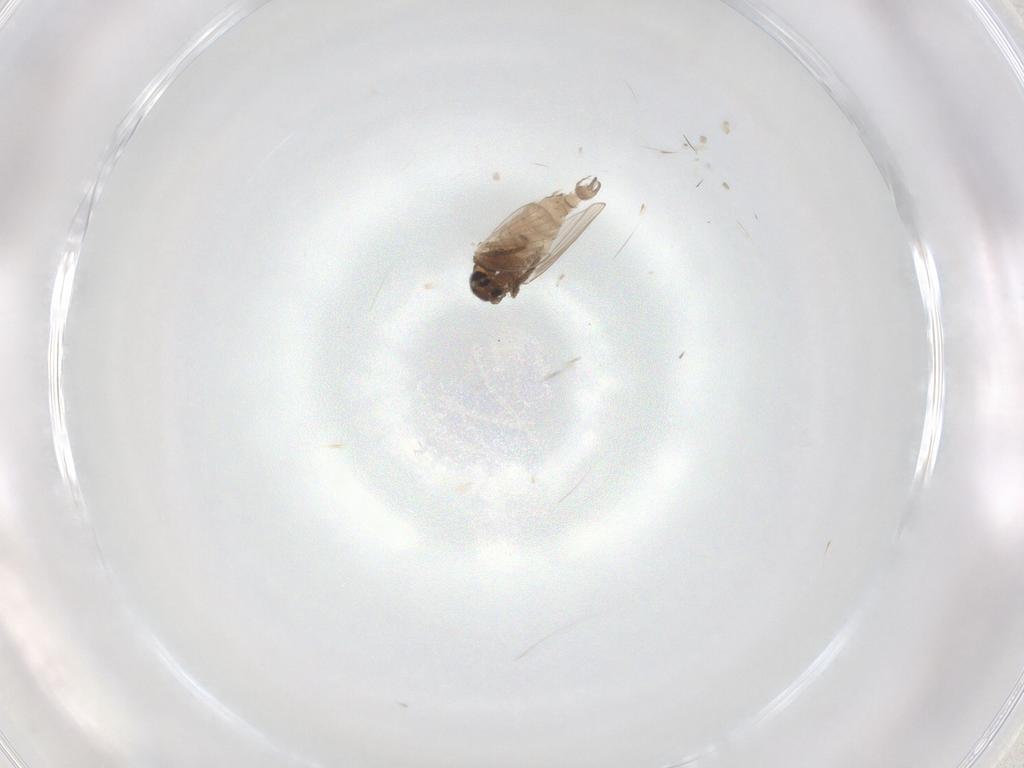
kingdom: Animalia
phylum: Arthropoda
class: Insecta
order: Diptera
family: Psychodidae
